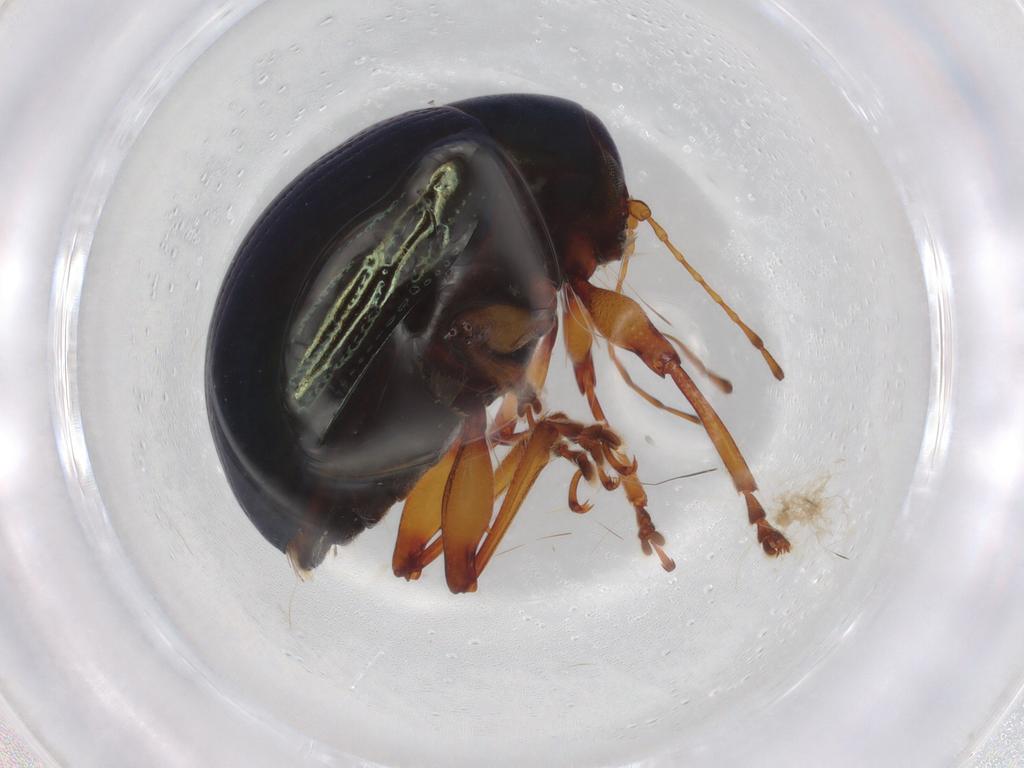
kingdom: Animalia
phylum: Arthropoda
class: Insecta
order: Coleoptera
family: Chrysomelidae
